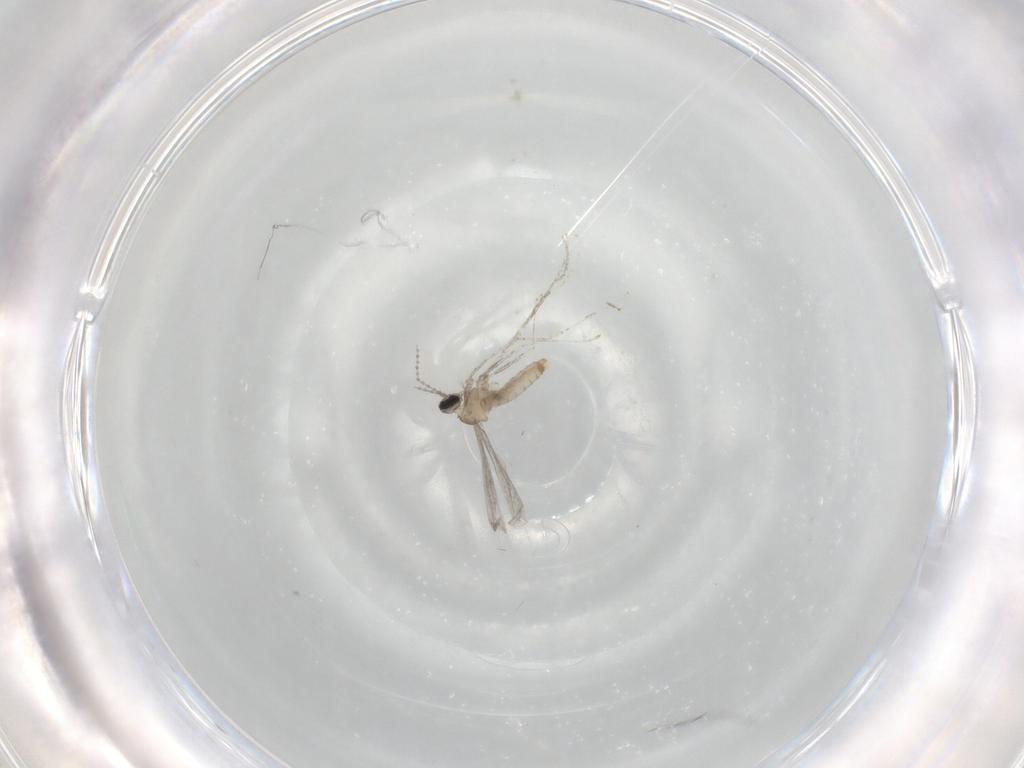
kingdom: Animalia
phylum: Arthropoda
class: Insecta
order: Diptera
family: Cecidomyiidae
